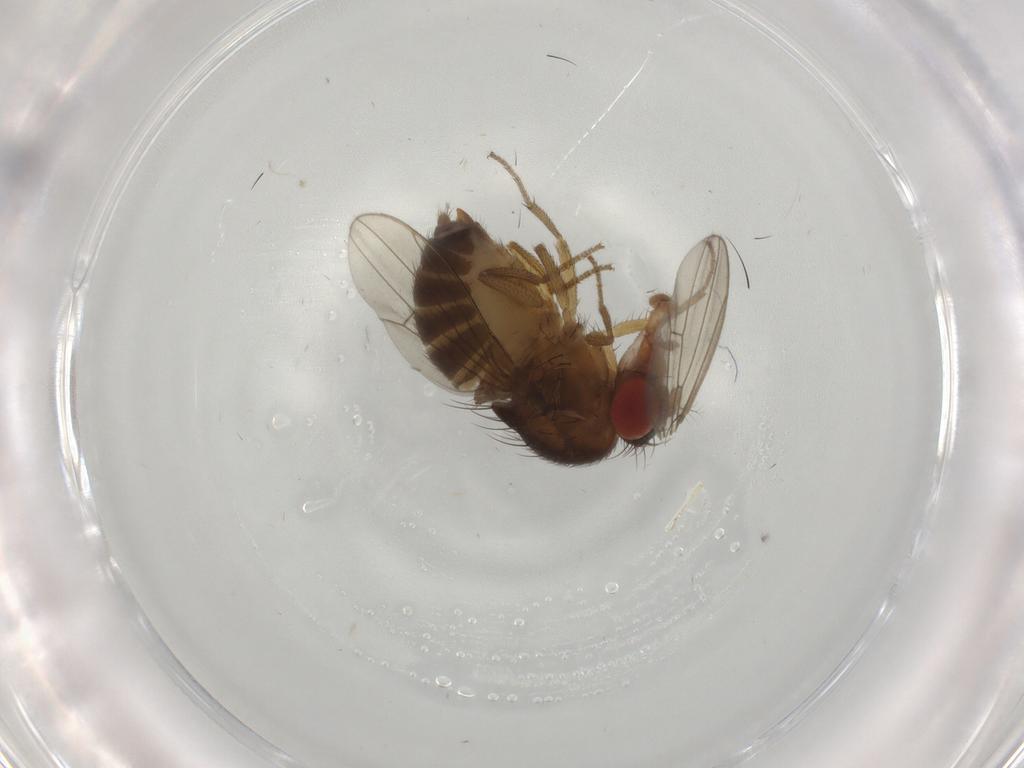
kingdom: Animalia
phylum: Arthropoda
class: Insecta
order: Diptera
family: Drosophilidae
